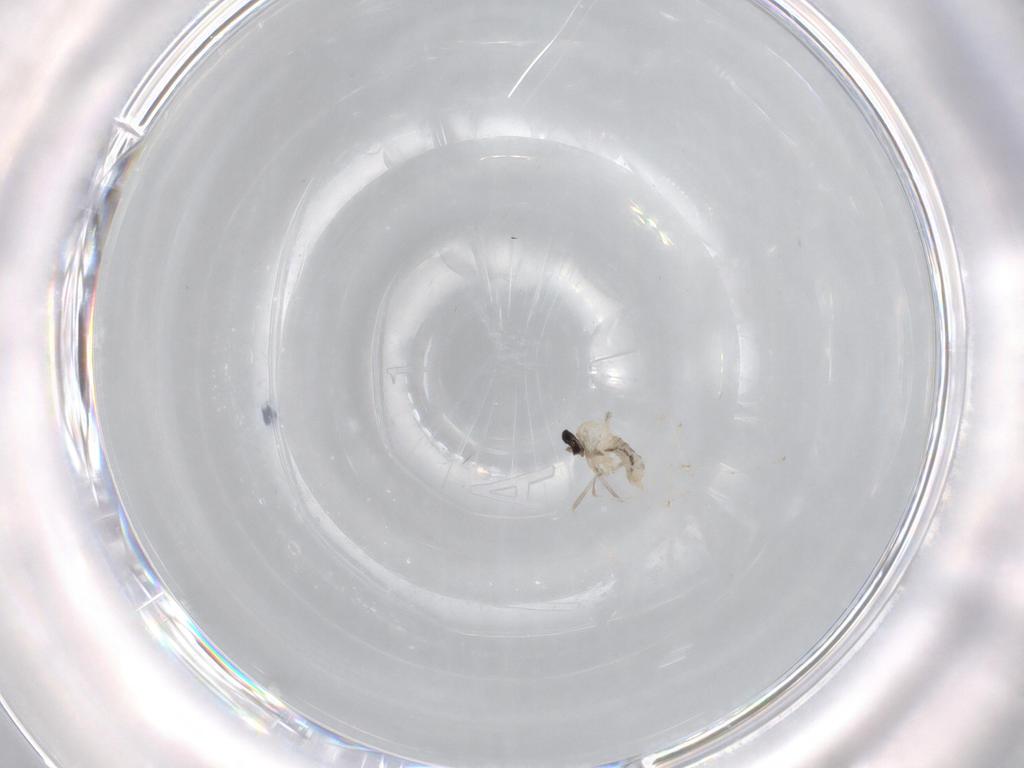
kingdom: Animalia
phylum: Arthropoda
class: Insecta
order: Diptera
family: Cecidomyiidae
